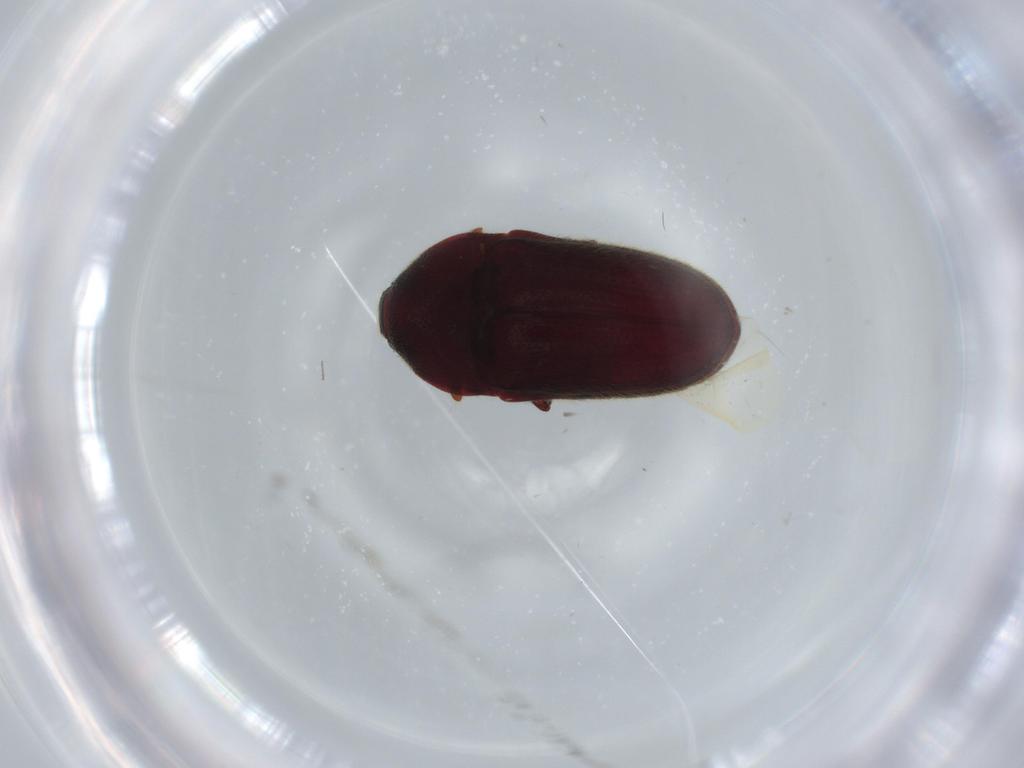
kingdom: Animalia
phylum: Arthropoda
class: Insecta
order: Coleoptera
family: Throscidae
